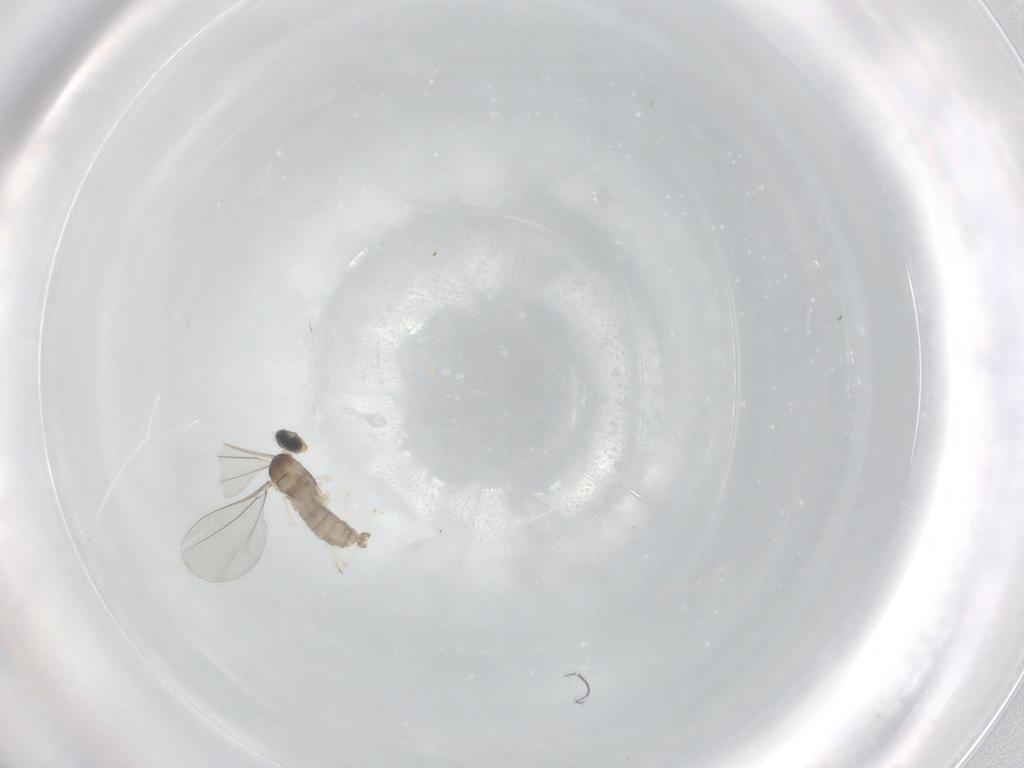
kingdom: Animalia
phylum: Arthropoda
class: Insecta
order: Diptera
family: Cecidomyiidae
